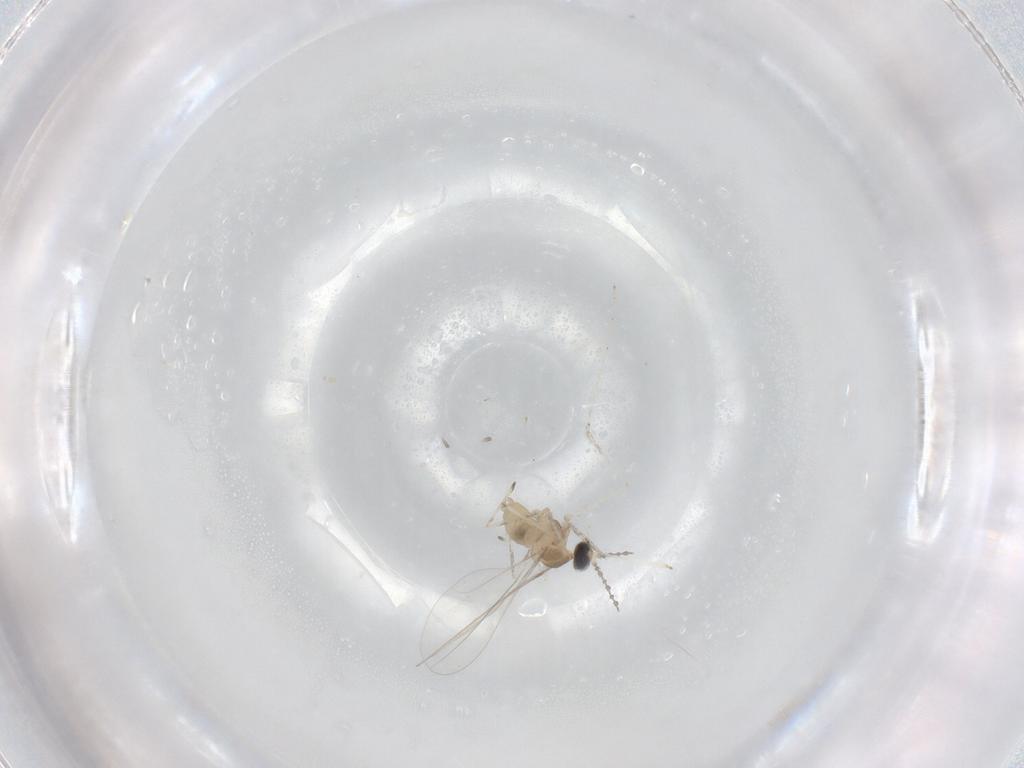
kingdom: Animalia
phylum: Arthropoda
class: Insecta
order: Diptera
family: Cecidomyiidae
